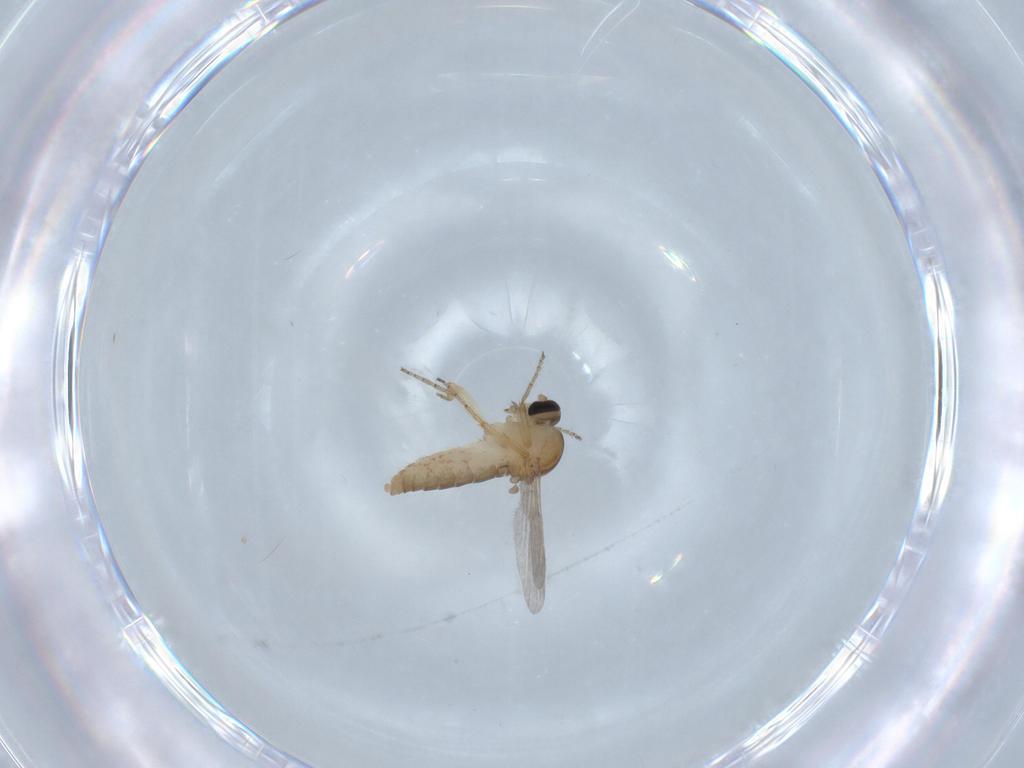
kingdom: Animalia
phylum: Arthropoda
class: Insecta
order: Diptera
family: Ceratopogonidae
